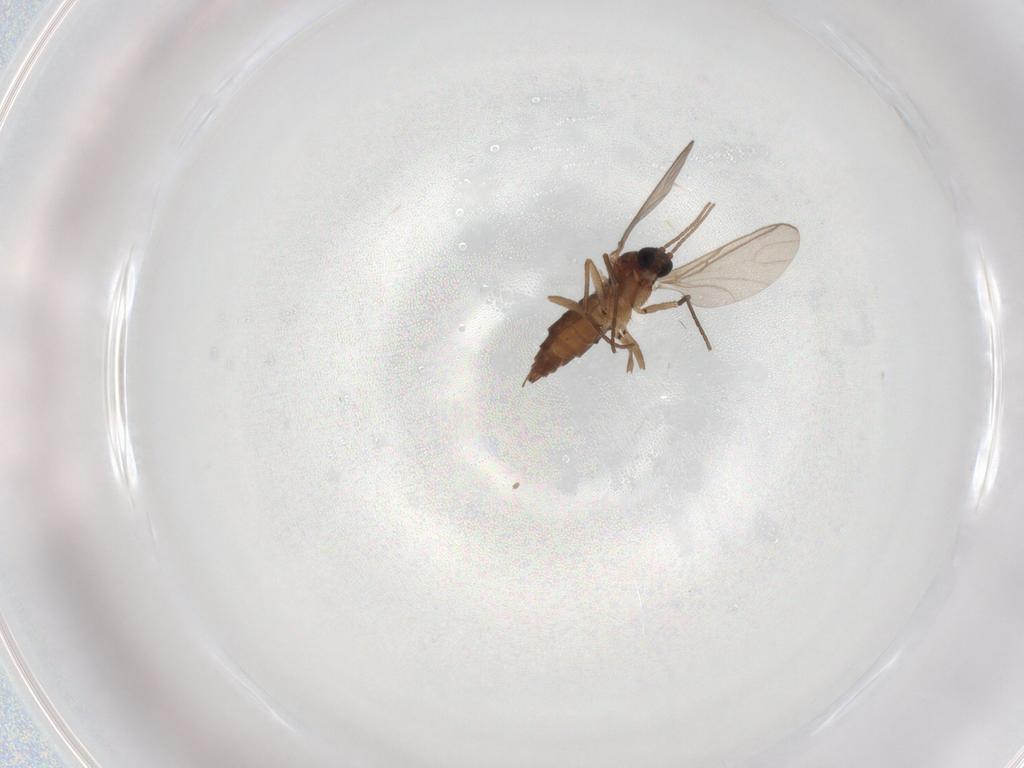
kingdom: Animalia
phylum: Arthropoda
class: Insecta
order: Diptera
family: Sciaridae
